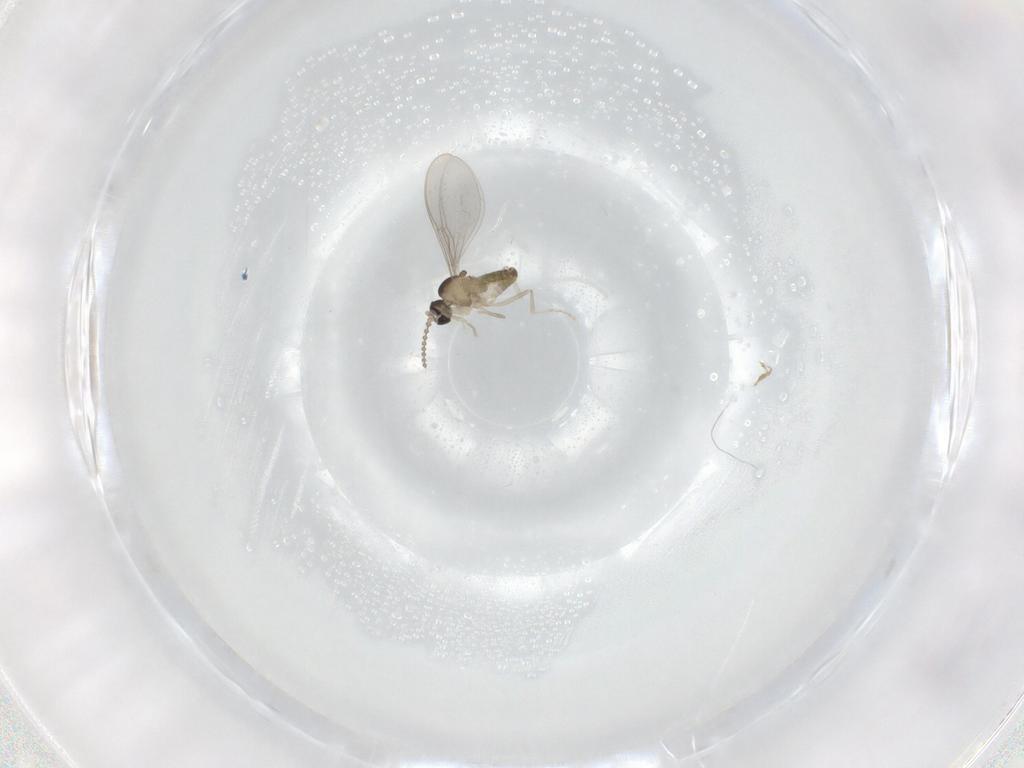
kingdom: Animalia
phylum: Arthropoda
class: Insecta
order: Diptera
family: Cecidomyiidae
